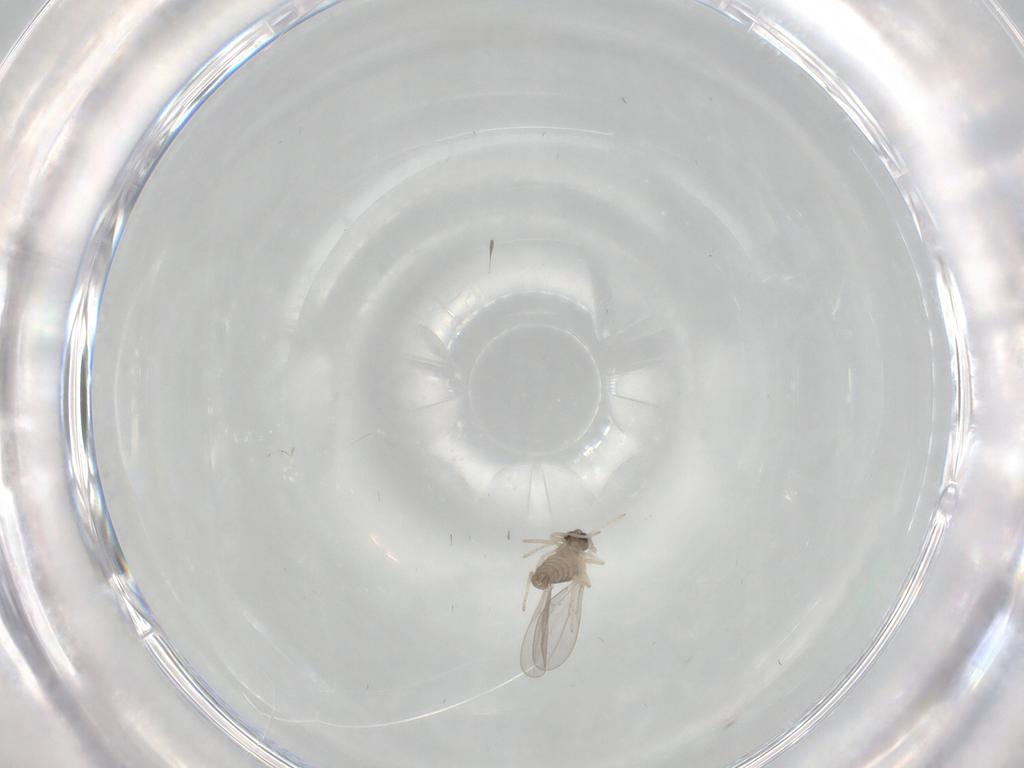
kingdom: Animalia
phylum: Arthropoda
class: Insecta
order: Diptera
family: Cecidomyiidae
